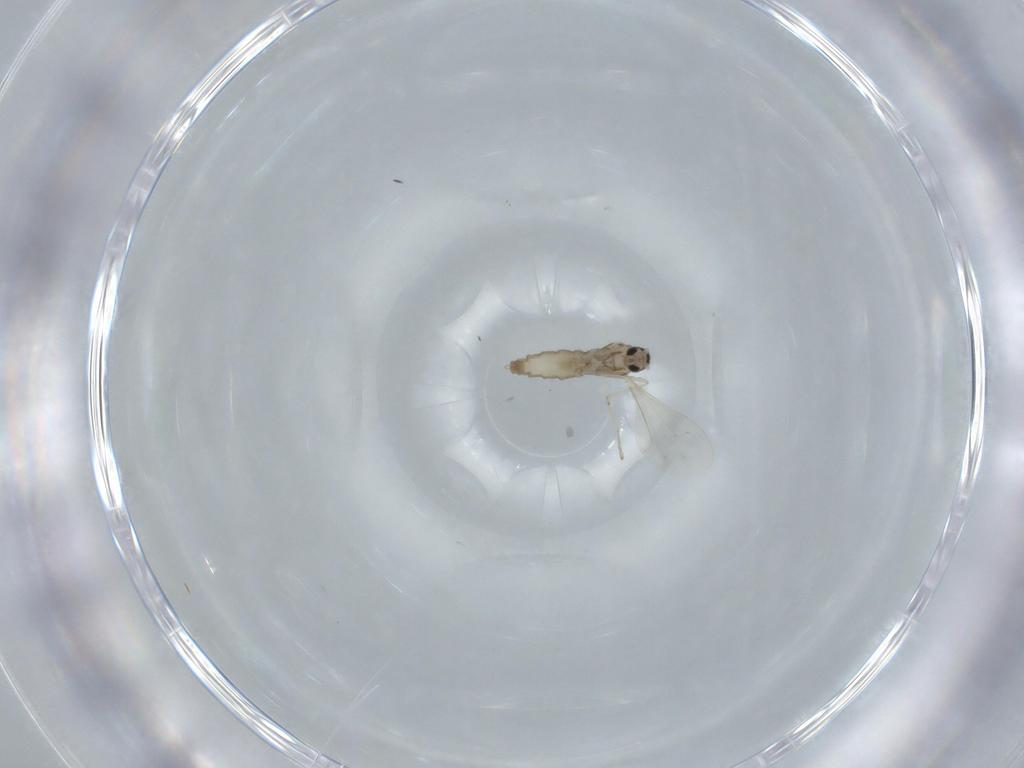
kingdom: Animalia
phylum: Arthropoda
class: Insecta
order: Diptera
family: Cecidomyiidae
